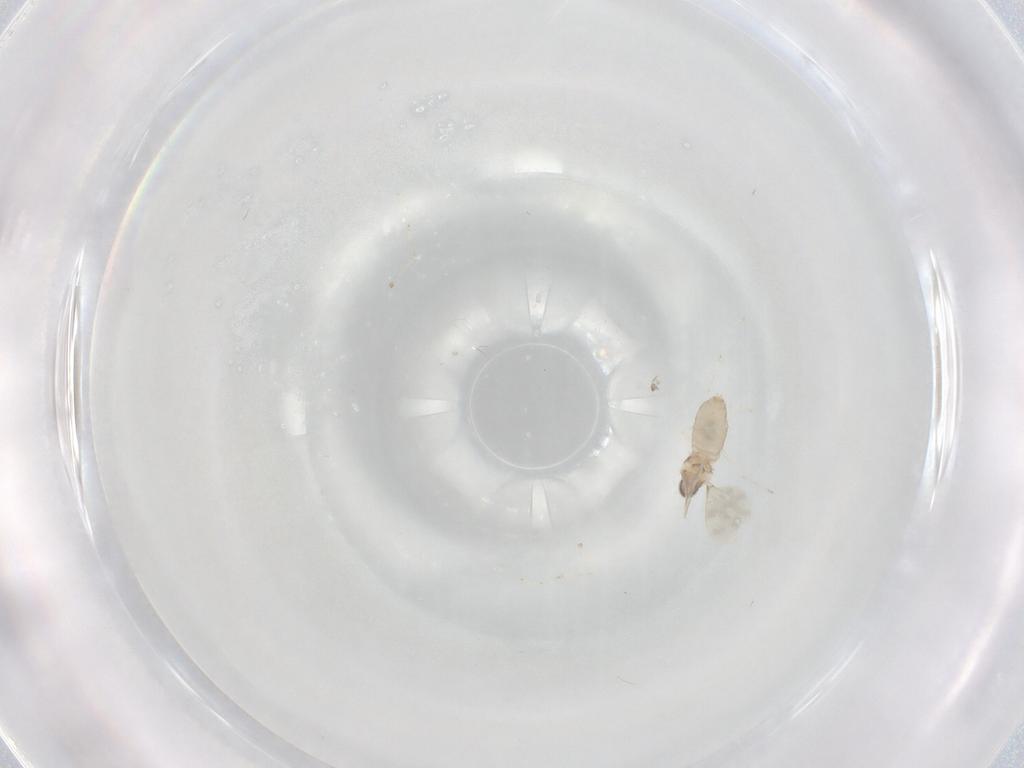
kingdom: Animalia
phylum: Arthropoda
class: Insecta
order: Diptera
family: Cecidomyiidae
